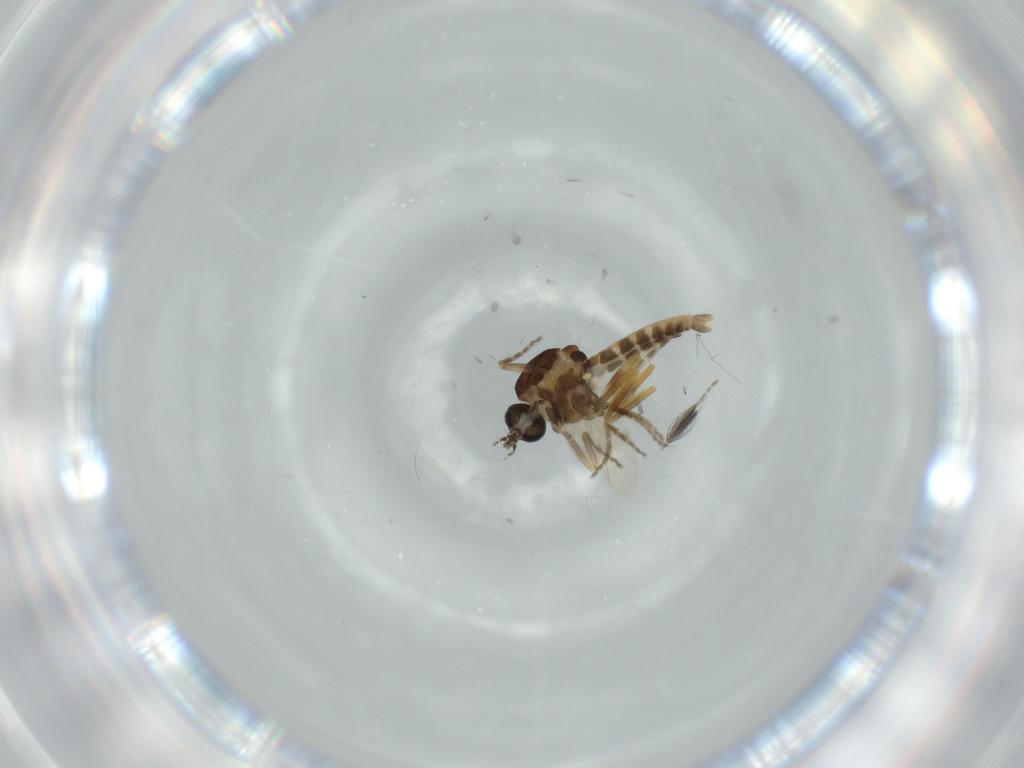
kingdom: Animalia
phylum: Arthropoda
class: Insecta
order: Diptera
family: Ceratopogonidae
